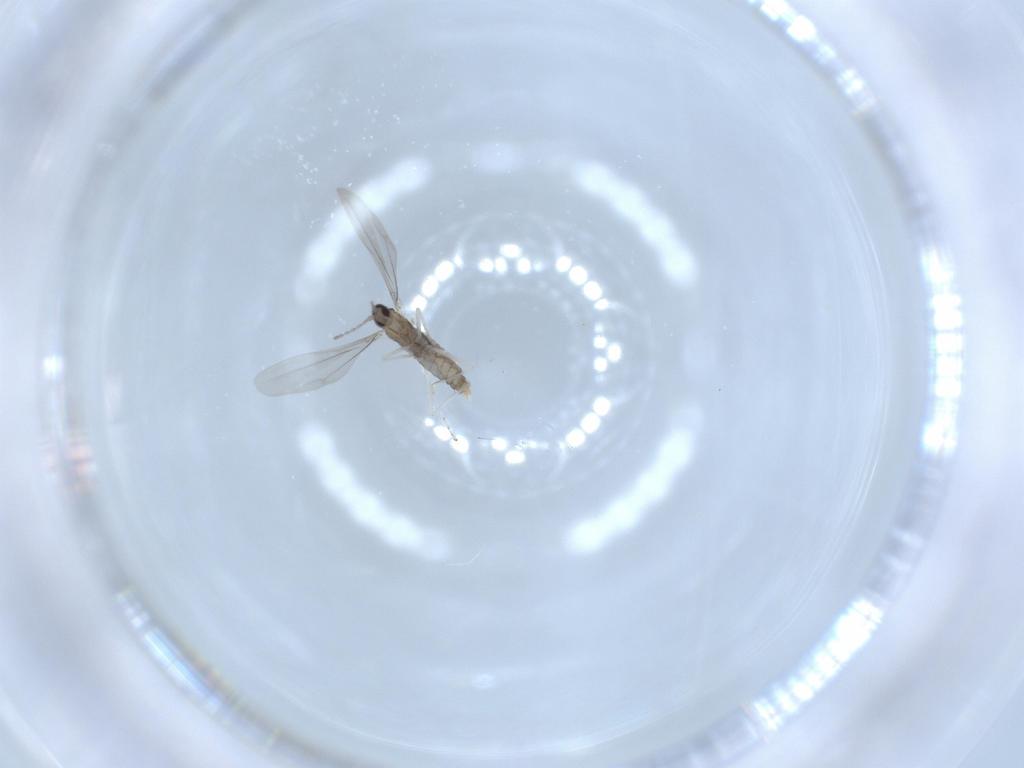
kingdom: Animalia
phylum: Arthropoda
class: Insecta
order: Diptera
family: Cecidomyiidae
